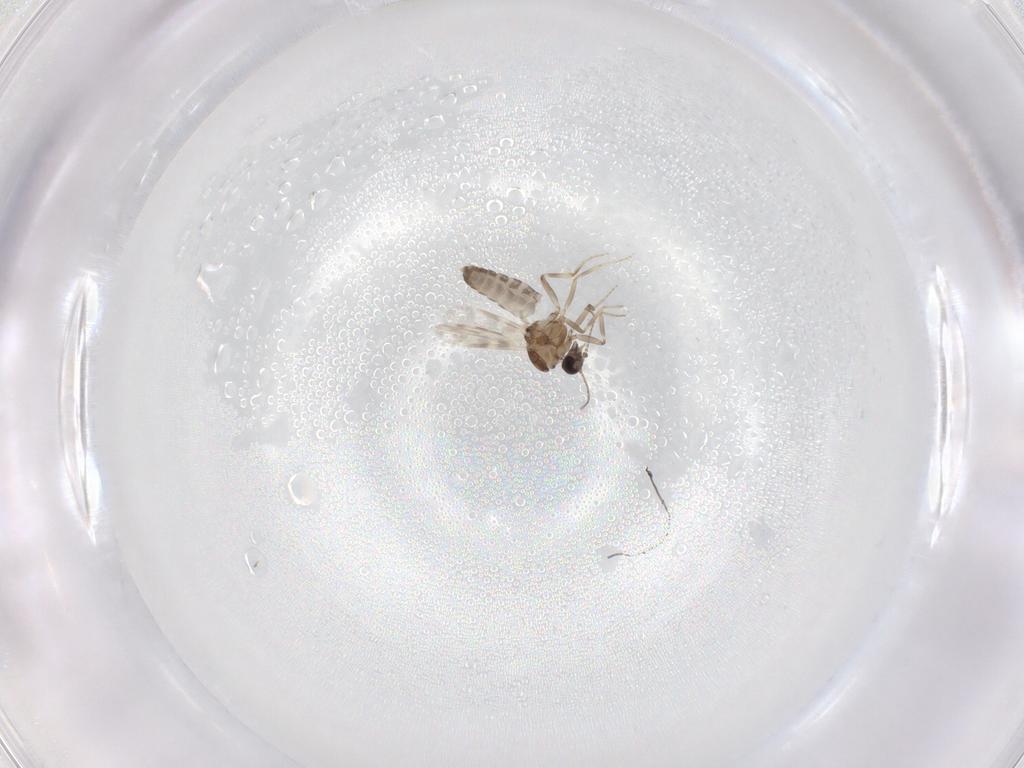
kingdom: Animalia
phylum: Arthropoda
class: Insecta
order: Diptera
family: Ceratopogonidae
